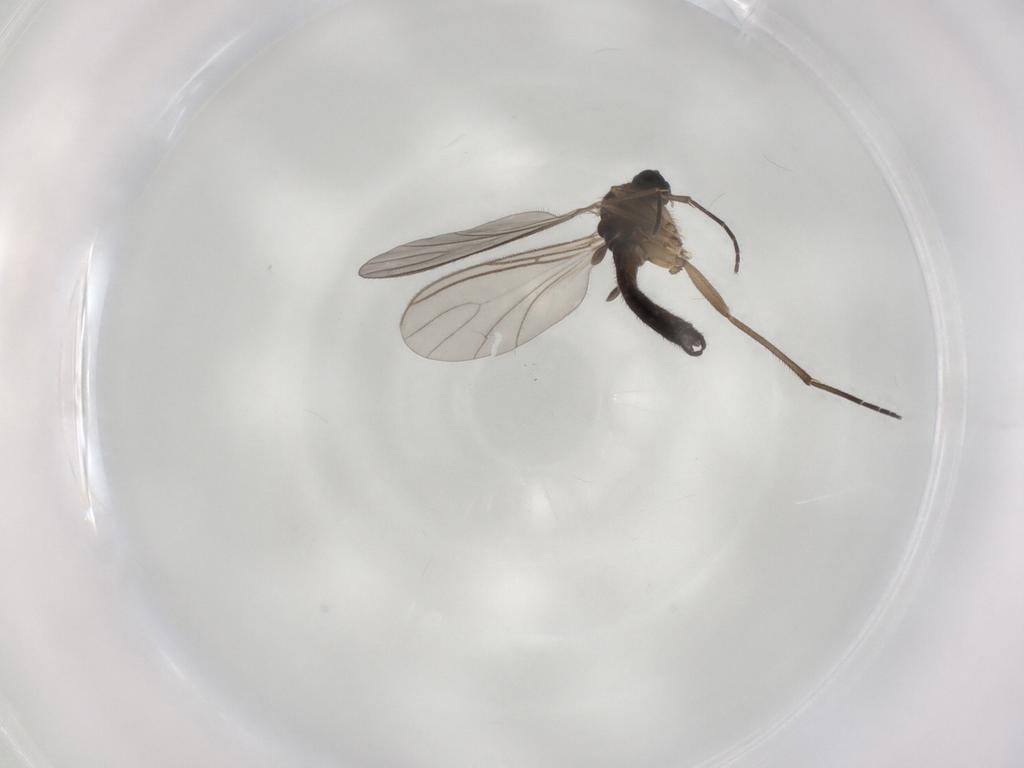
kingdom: Animalia
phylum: Arthropoda
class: Insecta
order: Diptera
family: Sciaridae
